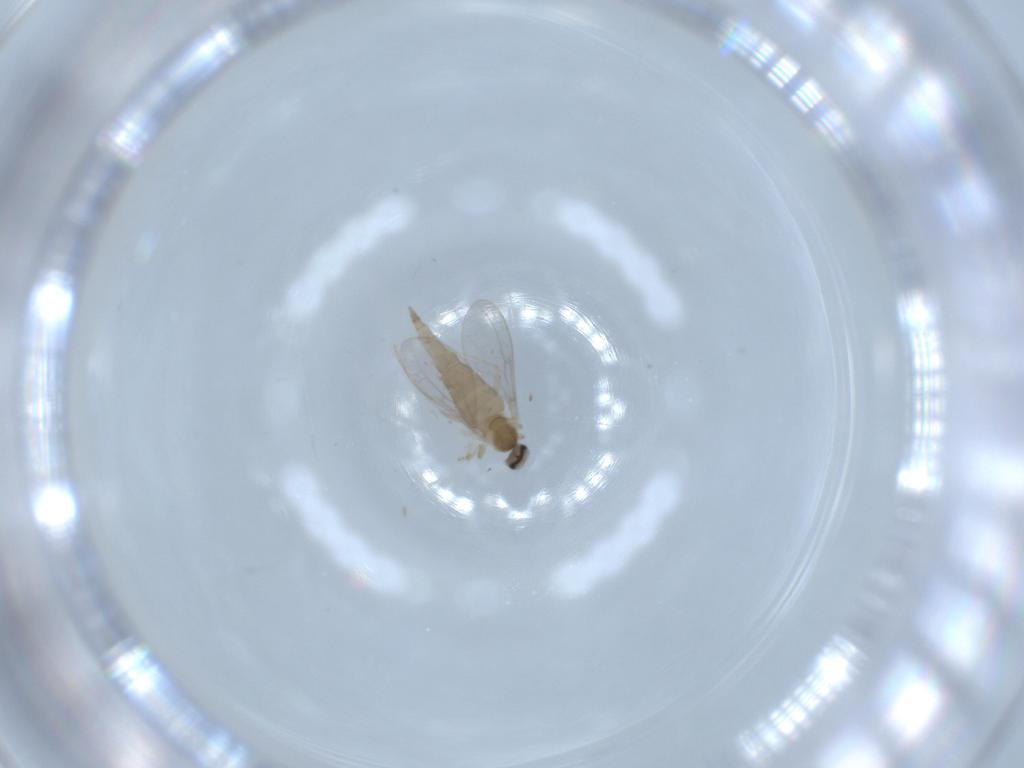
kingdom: Animalia
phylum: Arthropoda
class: Insecta
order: Diptera
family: Cecidomyiidae
